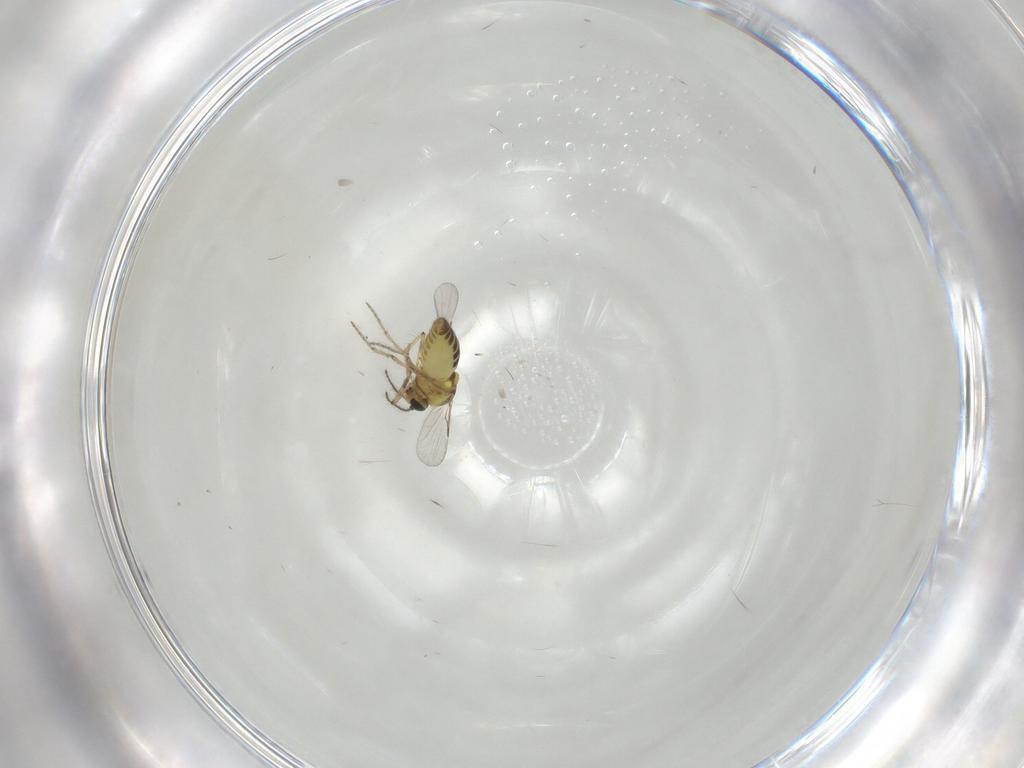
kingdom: Animalia
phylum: Arthropoda
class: Insecta
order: Diptera
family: Ceratopogonidae
